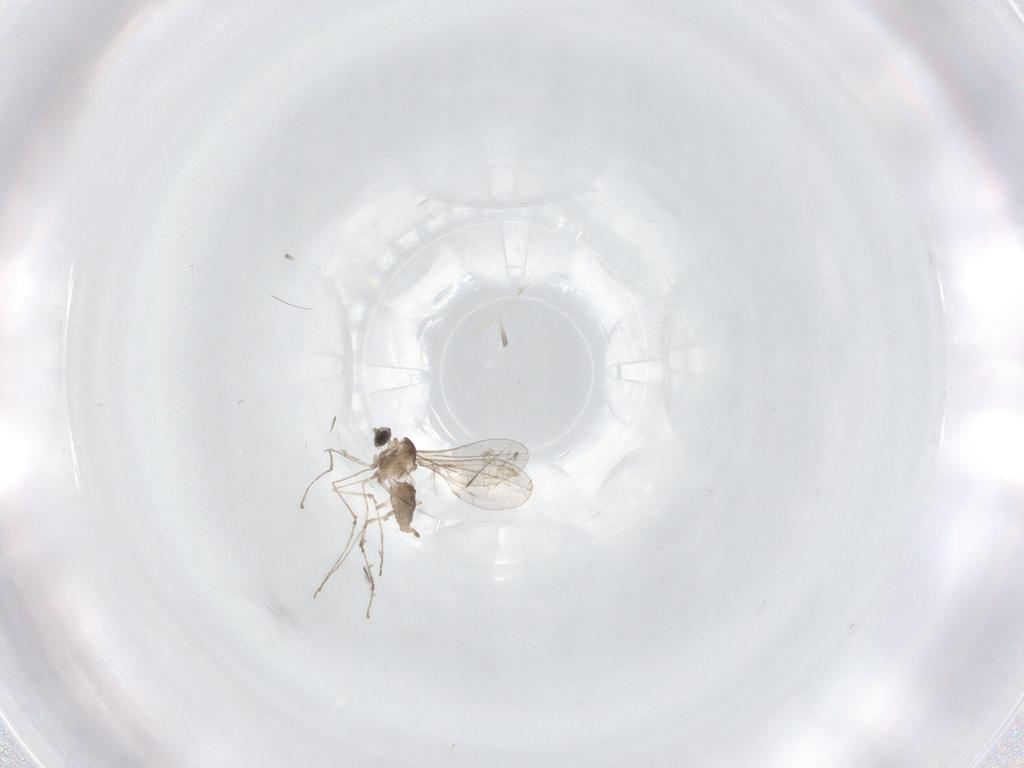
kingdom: Animalia
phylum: Arthropoda
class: Insecta
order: Diptera
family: Cecidomyiidae
